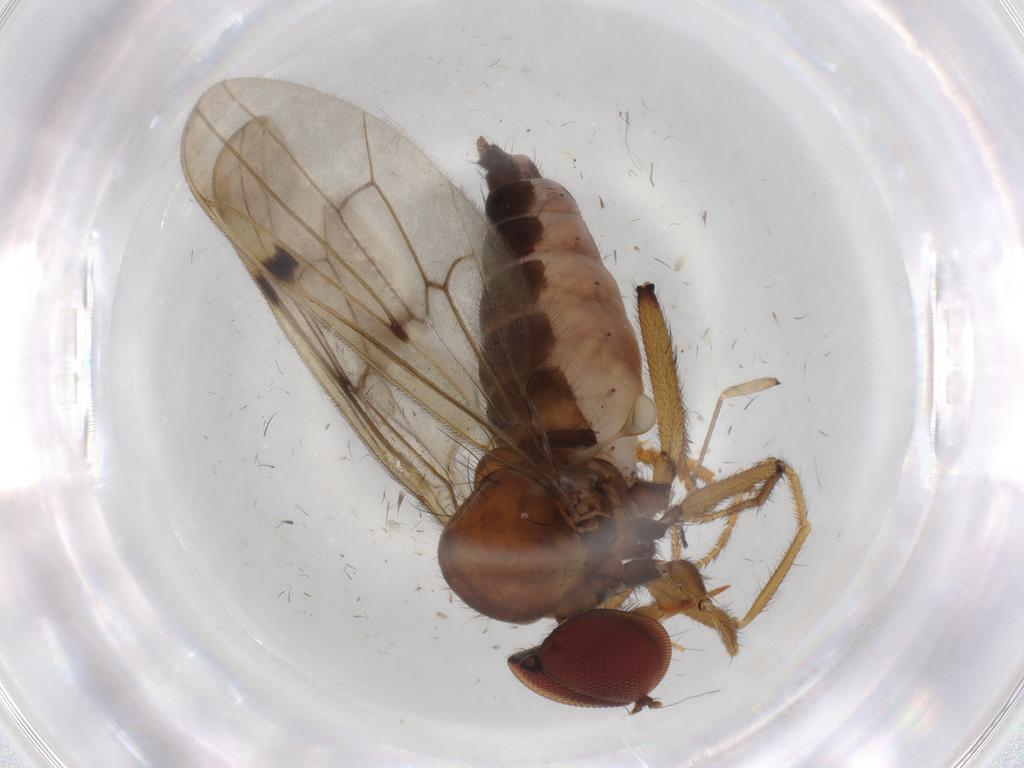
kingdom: Animalia
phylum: Arthropoda
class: Insecta
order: Diptera
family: Hybotidae
